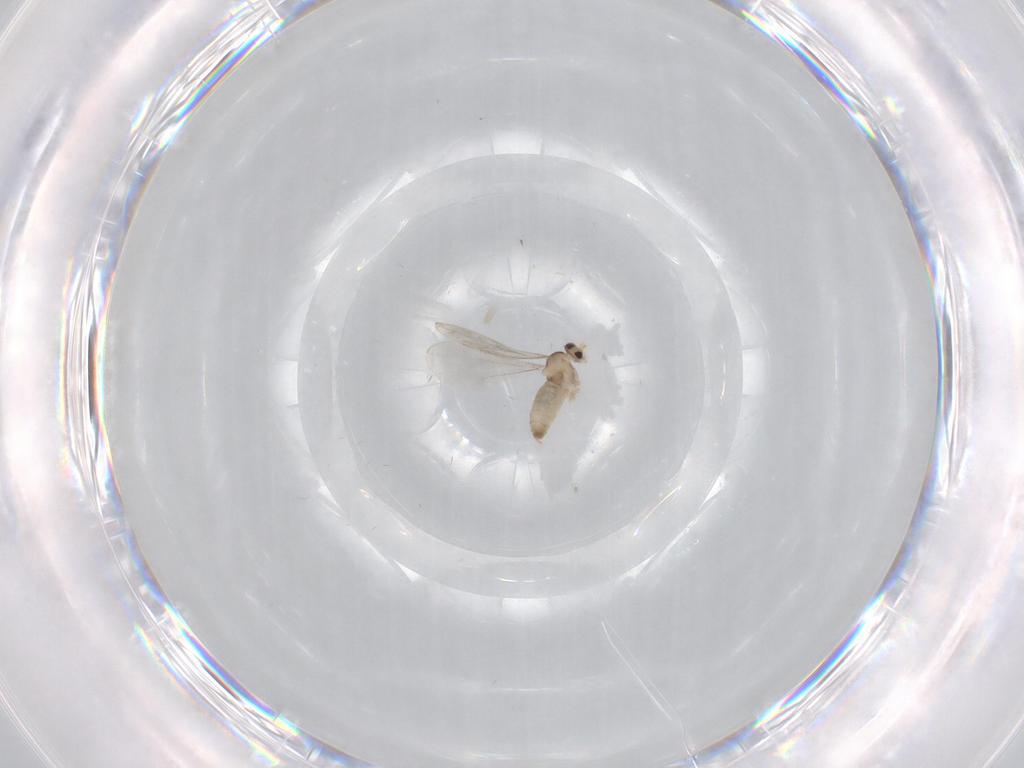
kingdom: Animalia
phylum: Arthropoda
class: Insecta
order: Diptera
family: Cecidomyiidae
